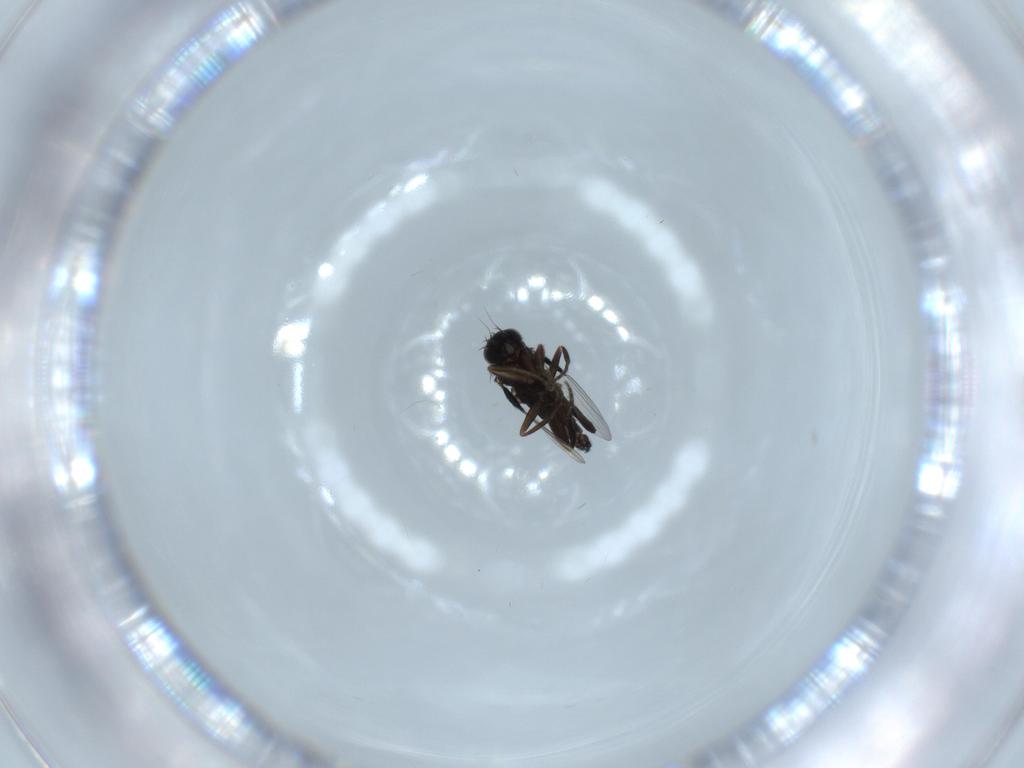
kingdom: Animalia
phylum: Arthropoda
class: Insecta
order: Diptera
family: Phoridae
